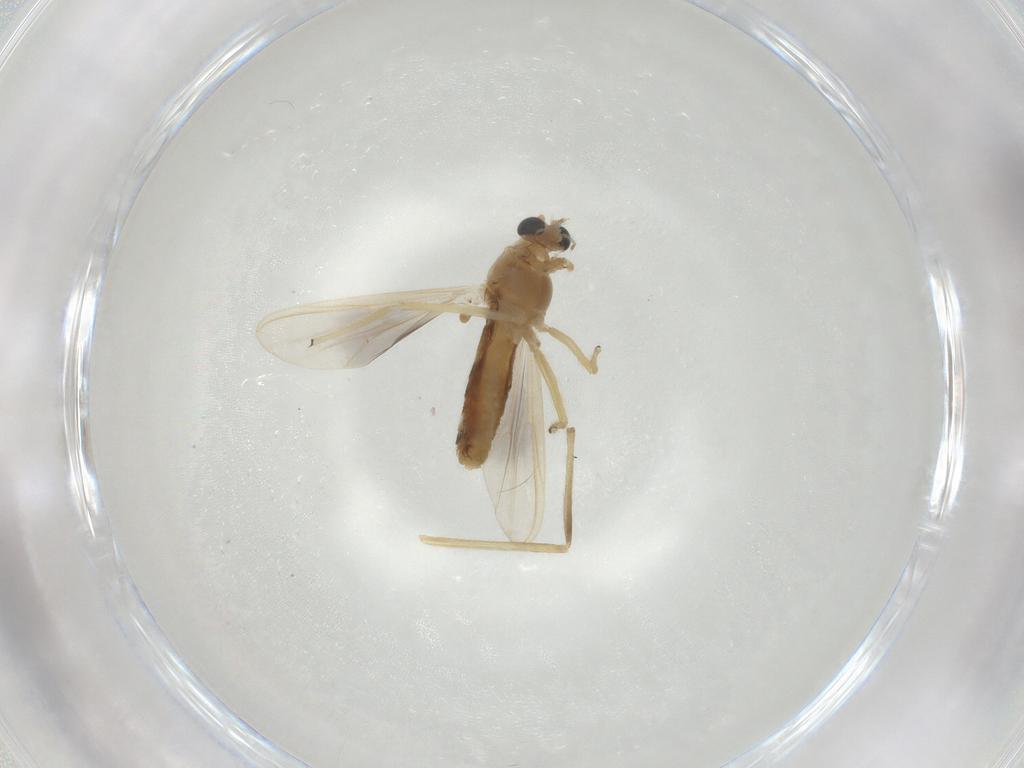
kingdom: Animalia
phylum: Arthropoda
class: Insecta
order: Diptera
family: Chironomidae
